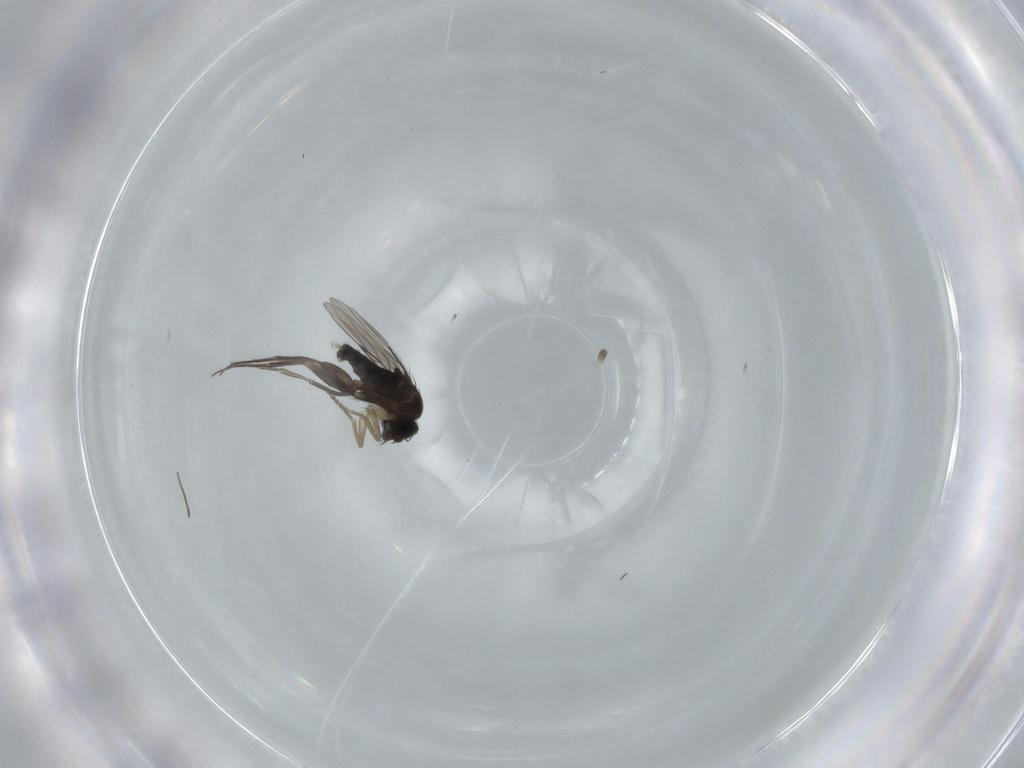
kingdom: Animalia
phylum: Arthropoda
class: Insecta
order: Diptera
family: Phoridae
